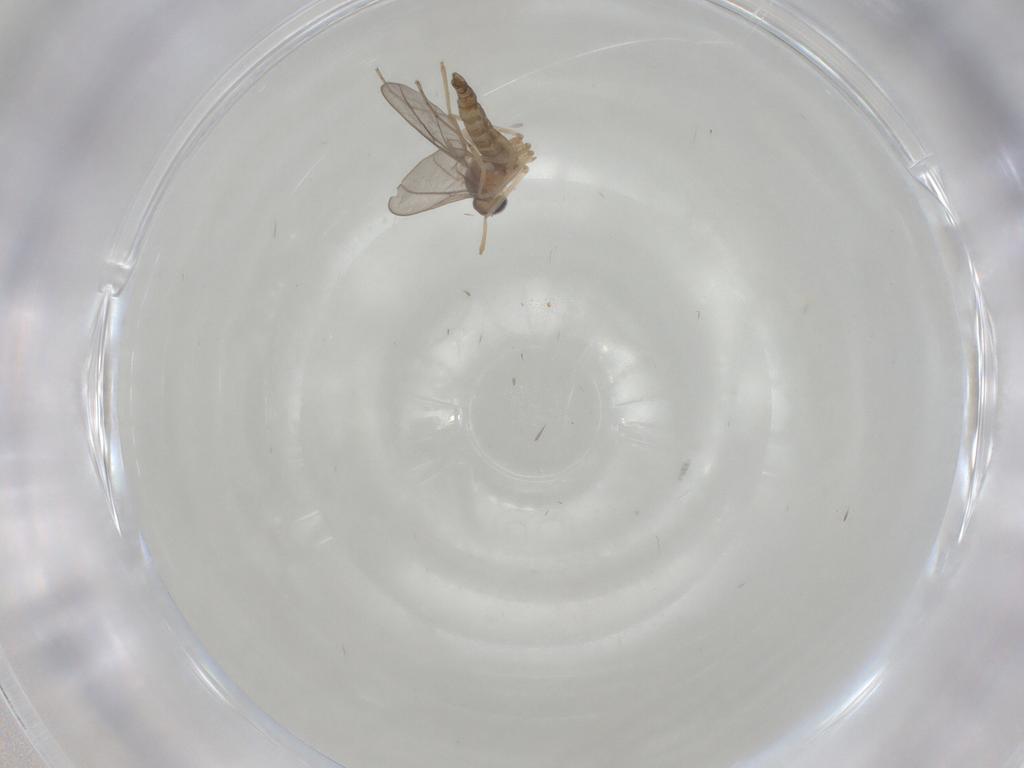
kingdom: Animalia
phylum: Arthropoda
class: Insecta
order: Diptera
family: Cecidomyiidae
